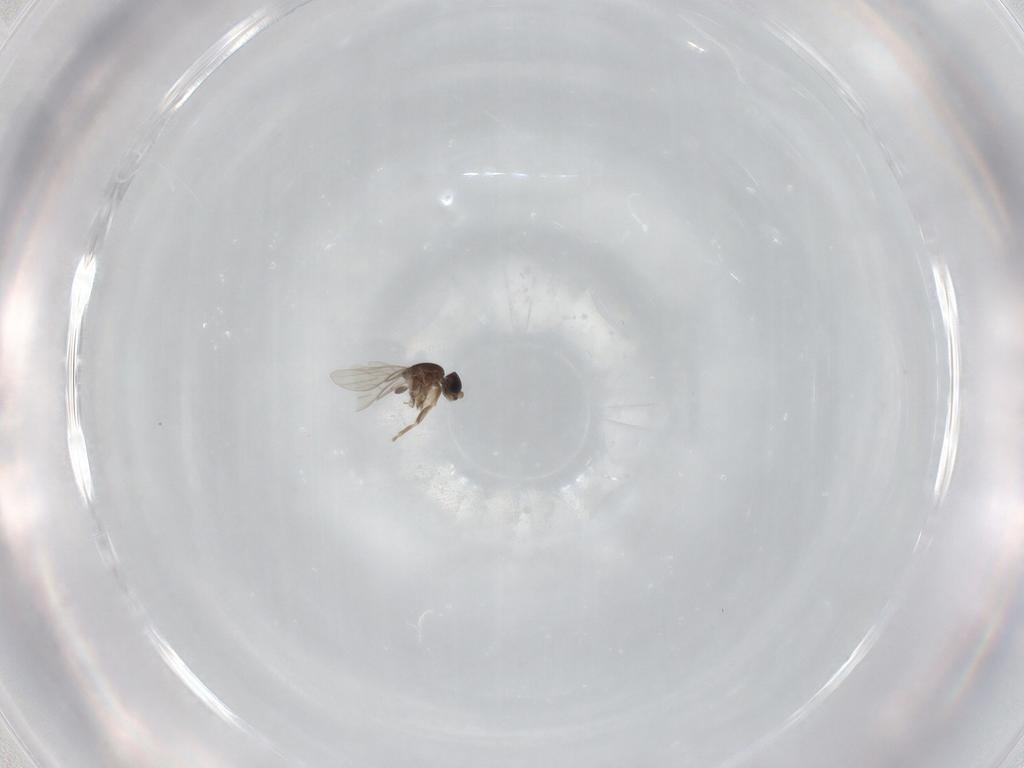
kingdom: Animalia
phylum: Arthropoda
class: Insecta
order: Diptera
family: Phoridae
